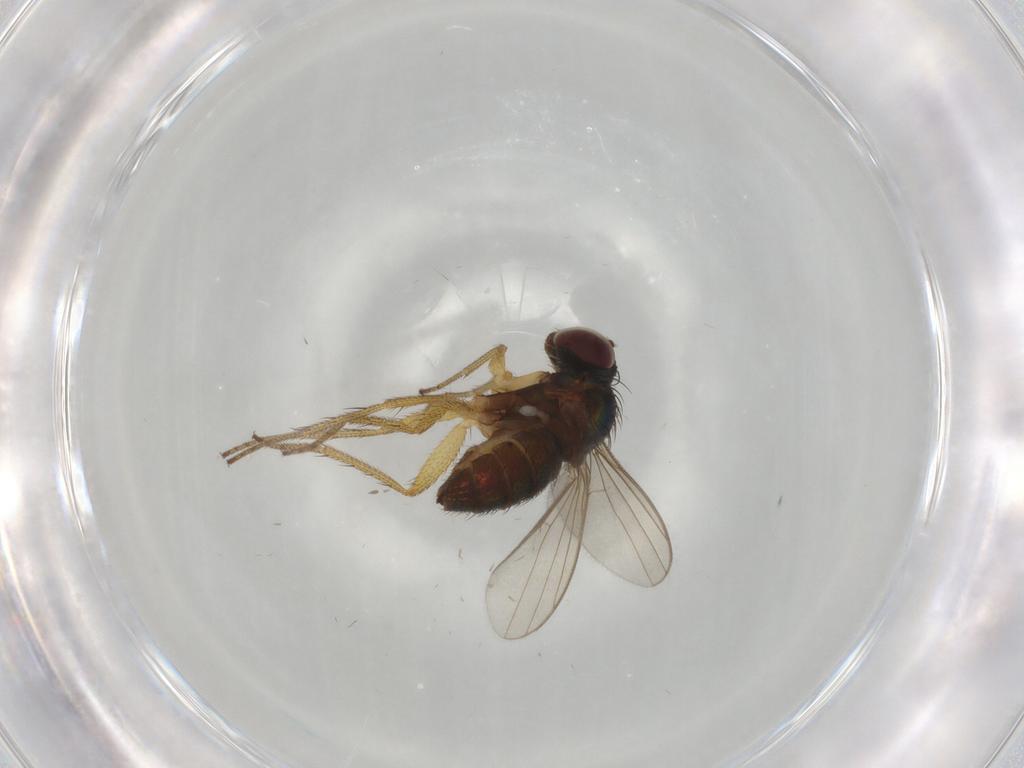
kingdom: Animalia
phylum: Arthropoda
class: Insecta
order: Diptera
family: Dolichopodidae
